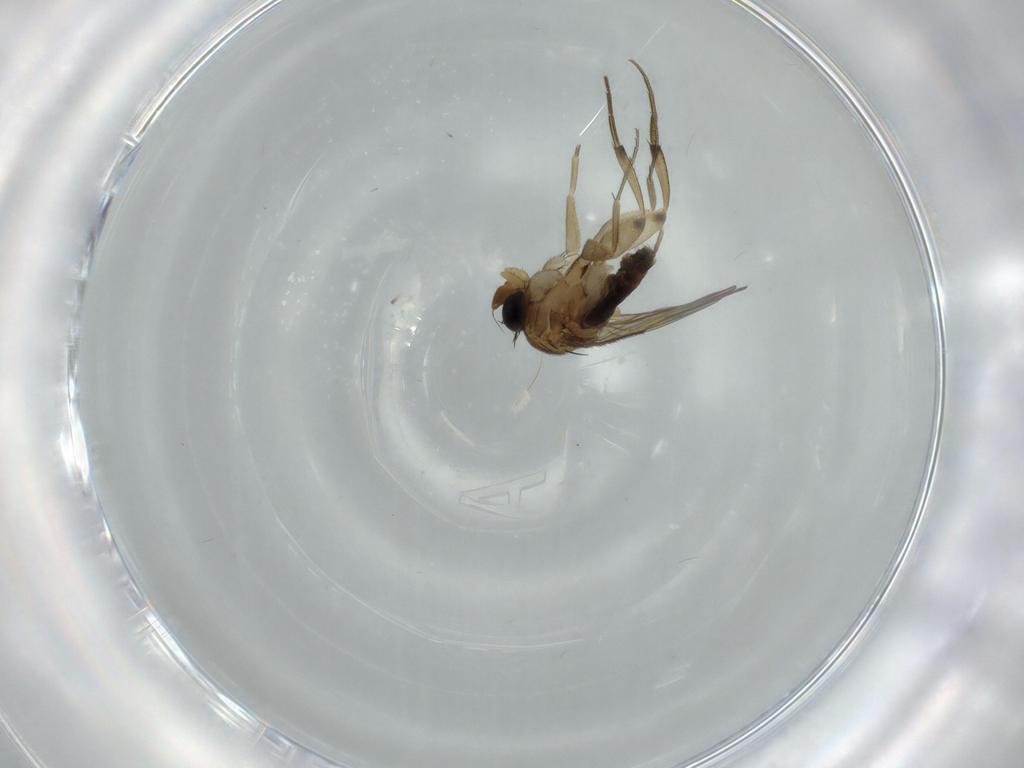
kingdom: Animalia
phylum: Arthropoda
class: Insecta
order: Diptera
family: Phoridae
